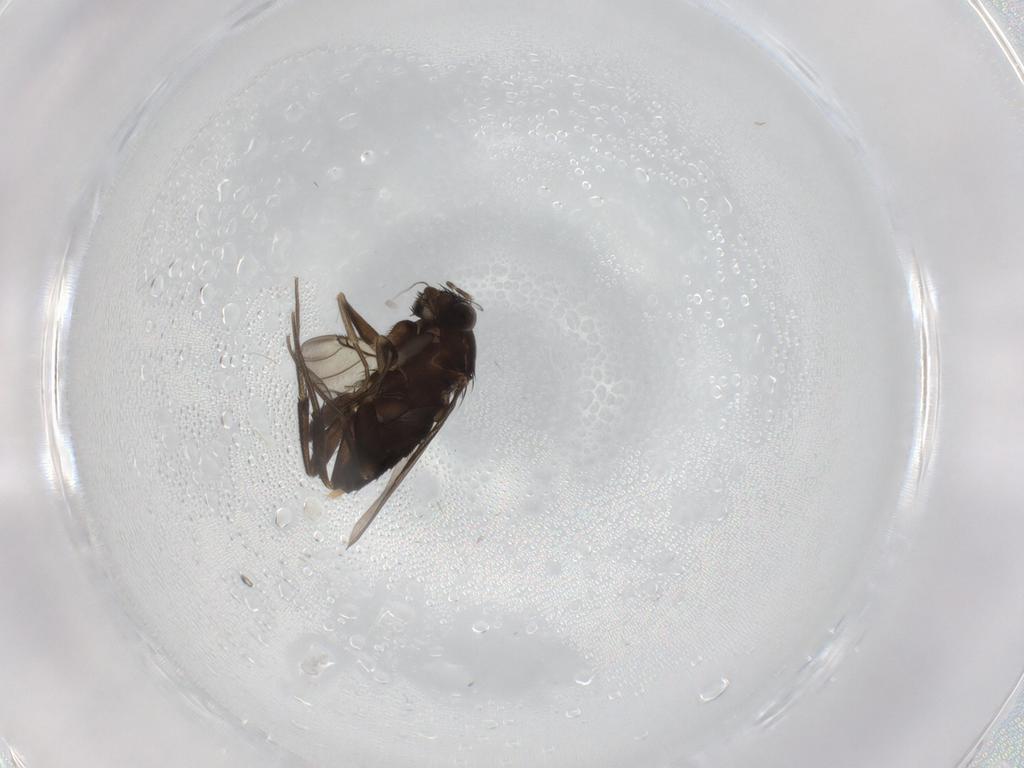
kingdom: Animalia
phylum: Arthropoda
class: Insecta
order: Diptera
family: Phoridae
